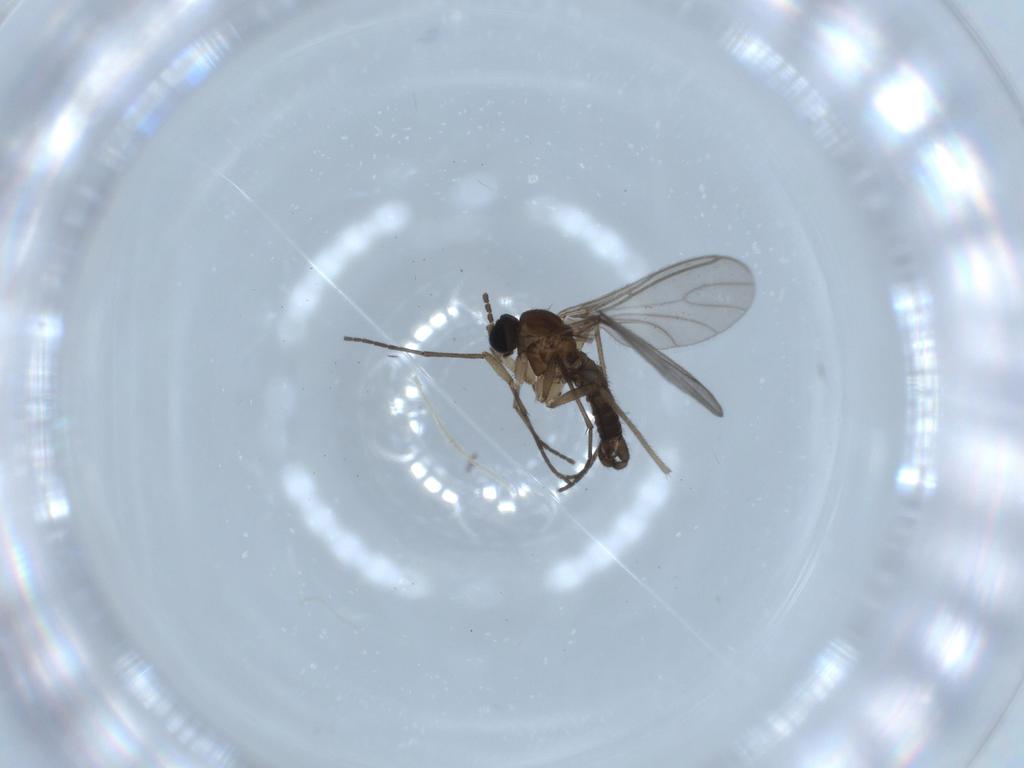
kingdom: Animalia
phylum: Arthropoda
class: Insecta
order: Diptera
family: Sciaridae
